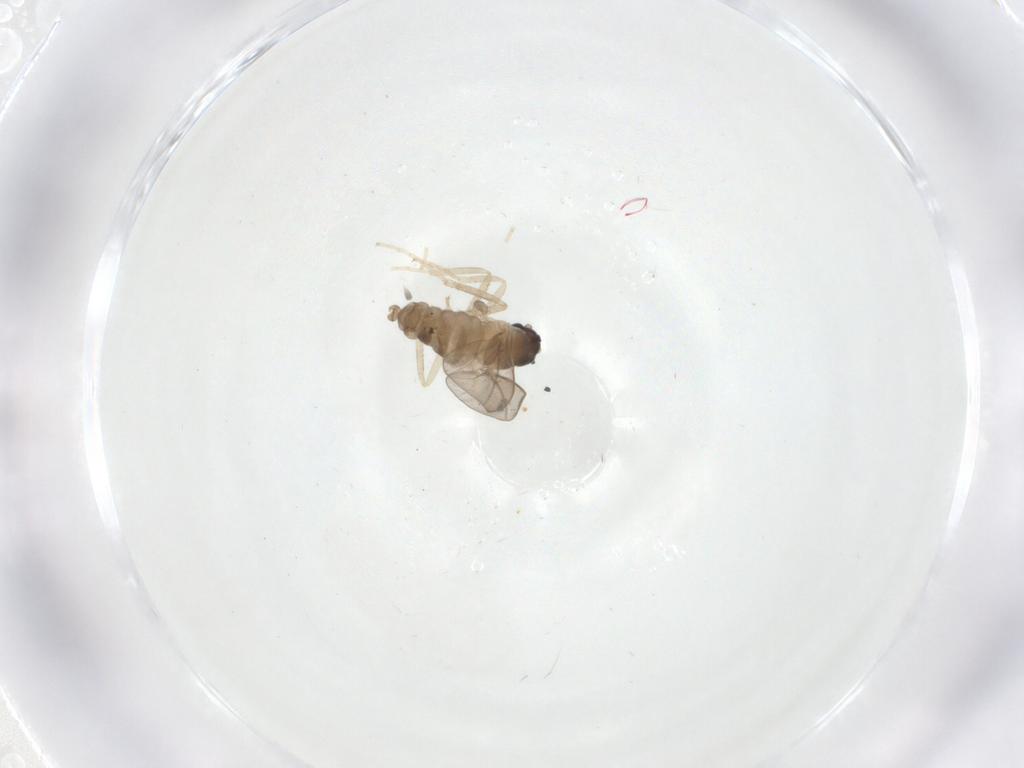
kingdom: Animalia
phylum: Arthropoda
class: Insecta
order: Diptera
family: Cecidomyiidae
